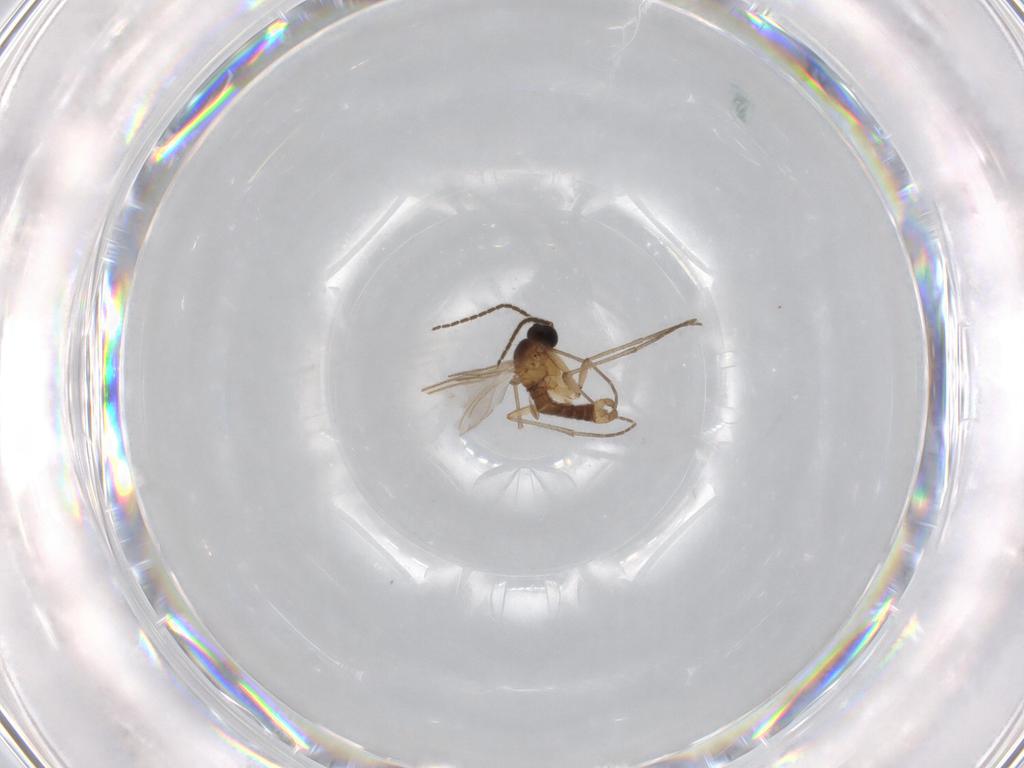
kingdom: Animalia
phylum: Arthropoda
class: Insecta
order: Diptera
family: Sciaridae
